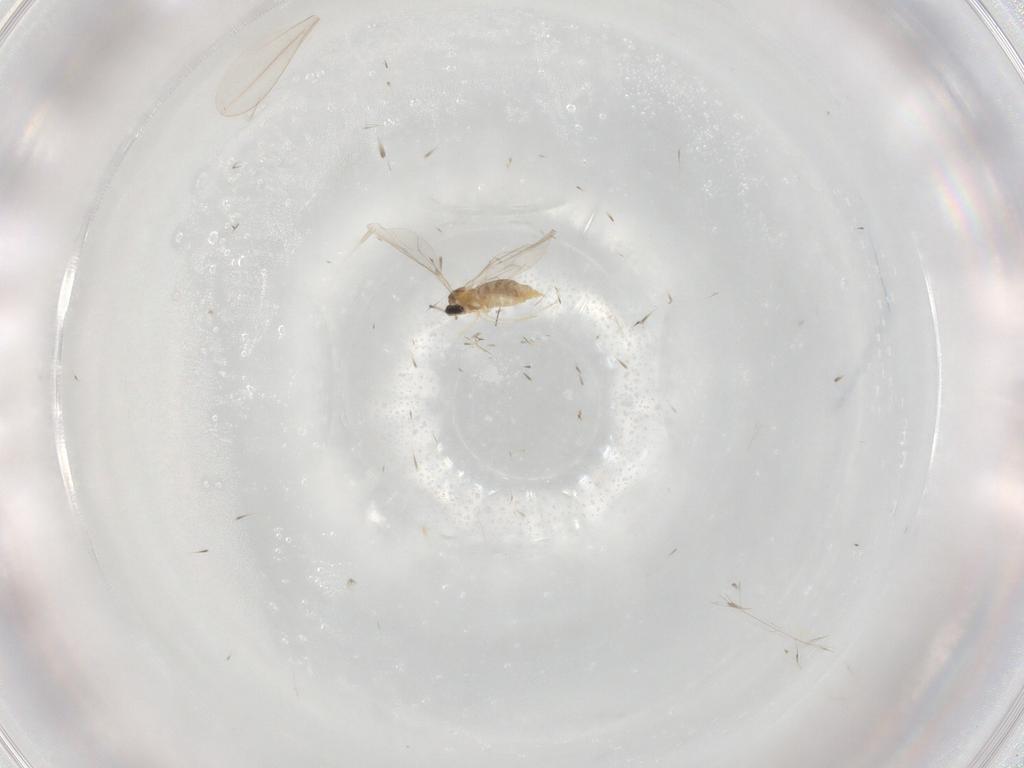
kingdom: Animalia
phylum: Arthropoda
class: Insecta
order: Diptera
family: Cecidomyiidae
